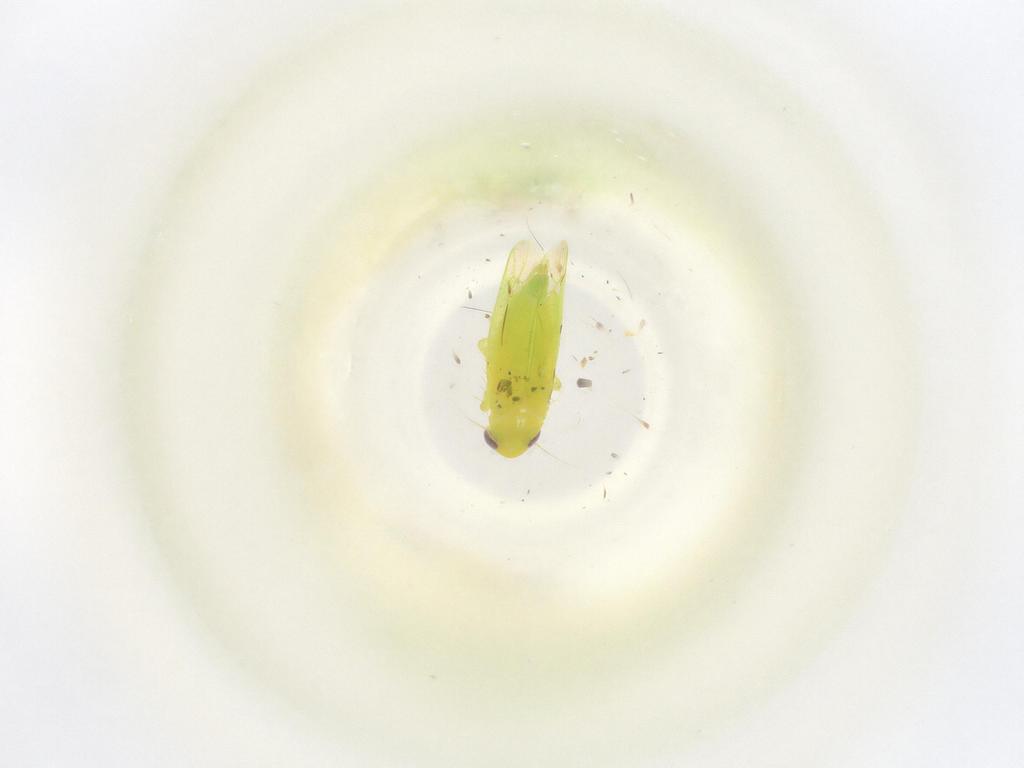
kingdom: Animalia
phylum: Arthropoda
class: Insecta
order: Hemiptera
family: Cicadellidae
